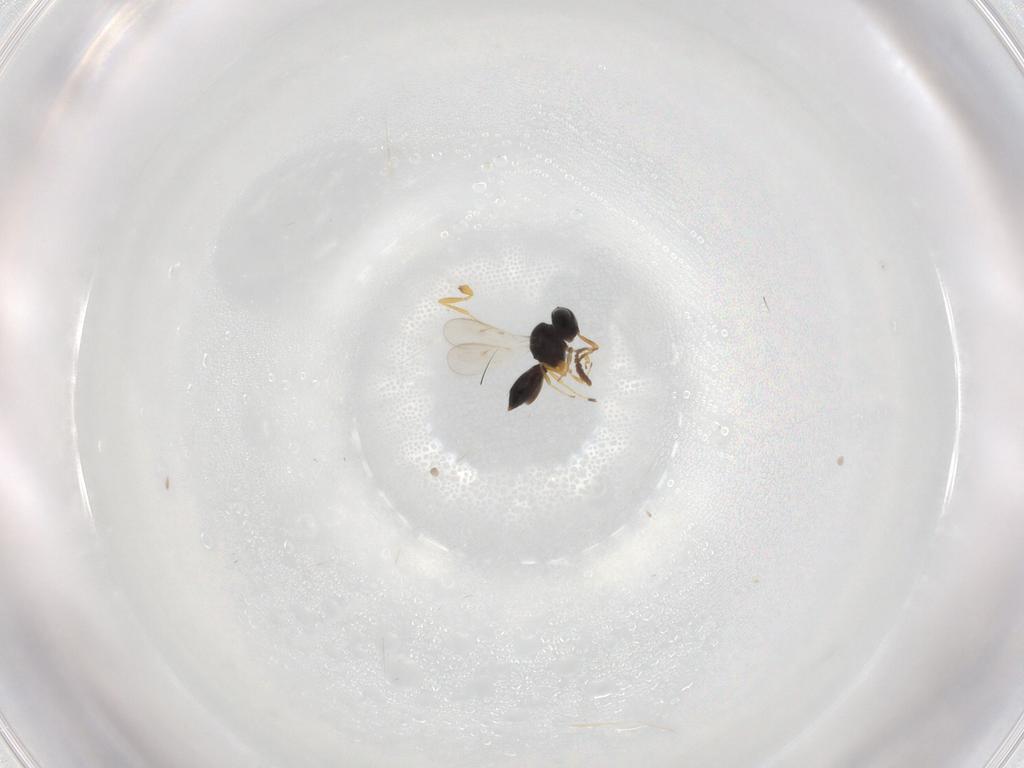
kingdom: Animalia
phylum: Arthropoda
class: Insecta
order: Hymenoptera
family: Scelionidae
